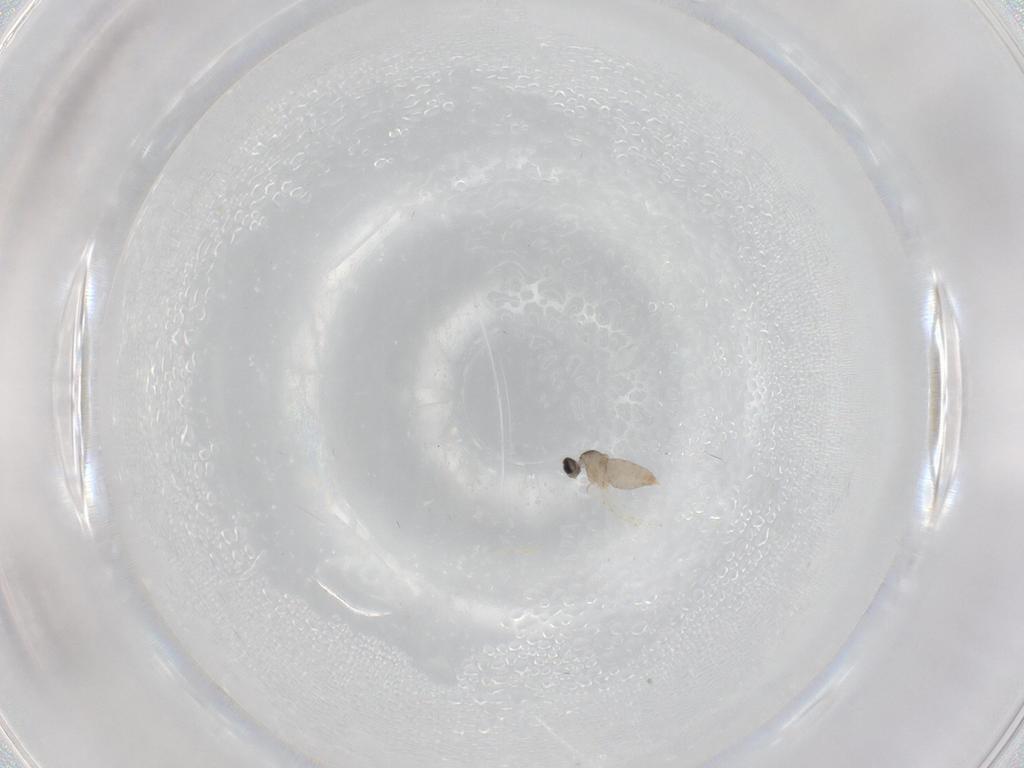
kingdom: Animalia
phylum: Arthropoda
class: Insecta
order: Diptera
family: Cecidomyiidae
